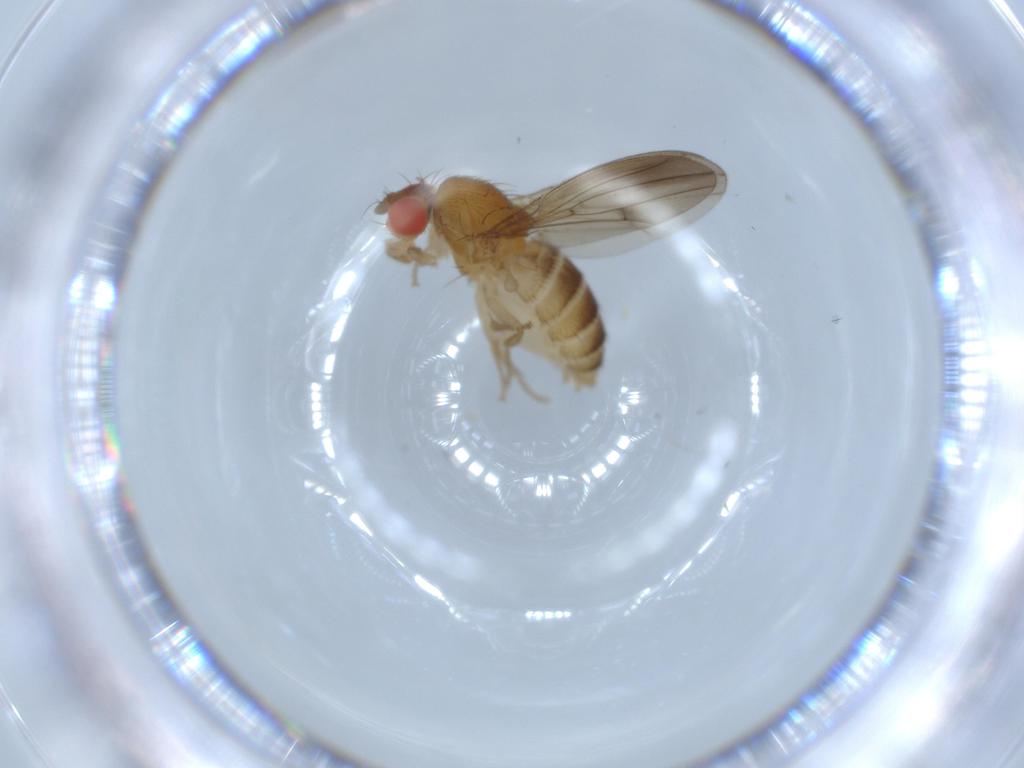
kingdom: Animalia
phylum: Arthropoda
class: Insecta
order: Diptera
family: Drosophilidae
